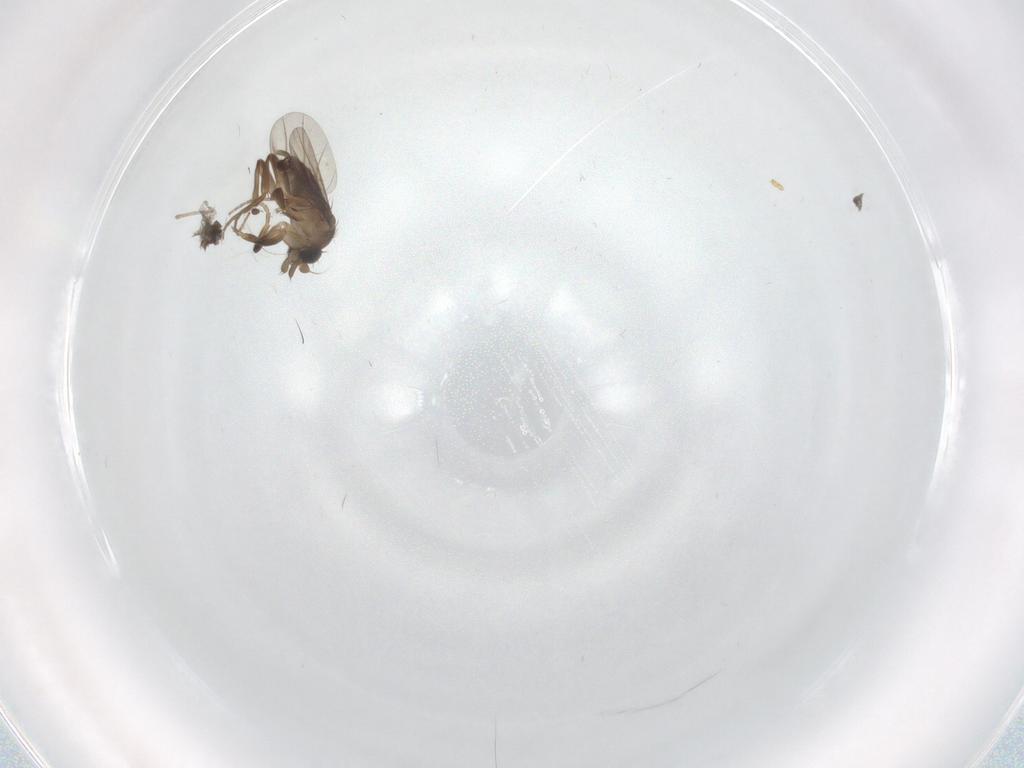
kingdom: Animalia
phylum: Arthropoda
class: Insecta
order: Diptera
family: Phoridae
